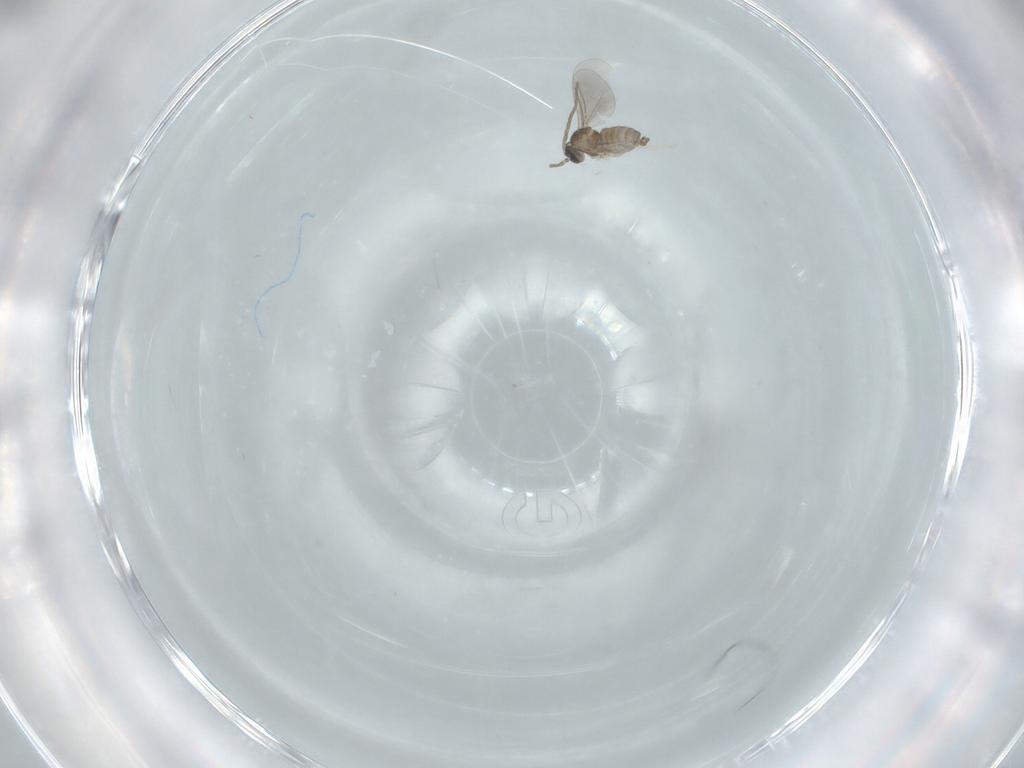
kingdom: Animalia
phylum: Arthropoda
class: Insecta
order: Diptera
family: Cecidomyiidae
